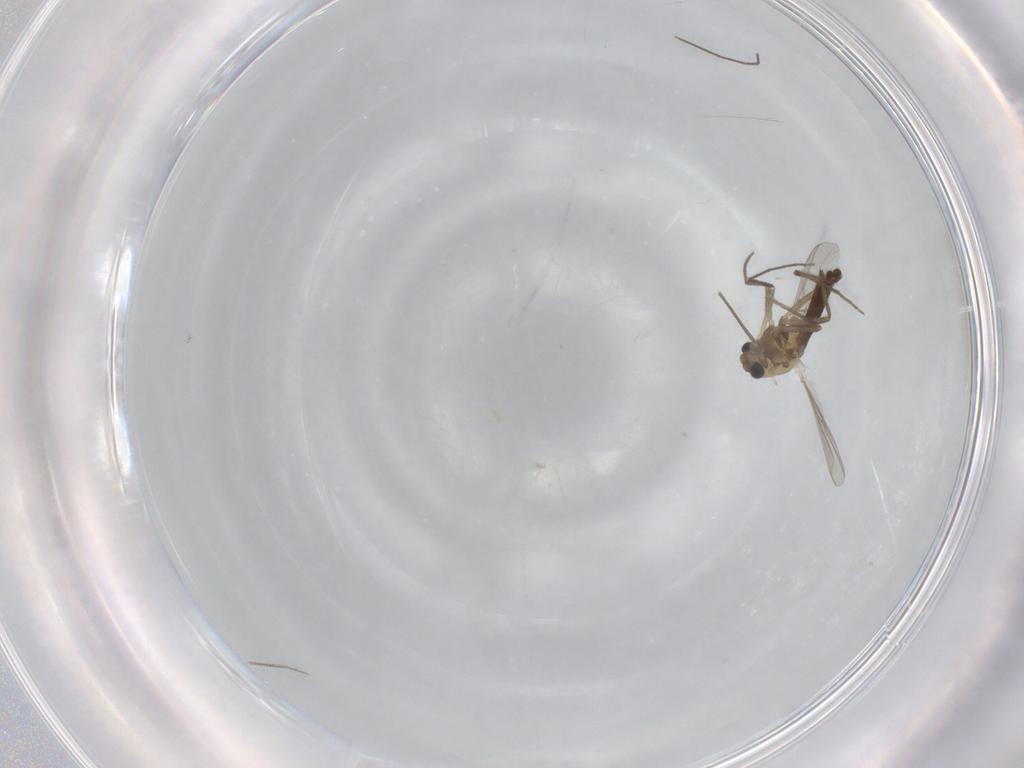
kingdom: Animalia
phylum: Arthropoda
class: Insecta
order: Diptera
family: Chironomidae
